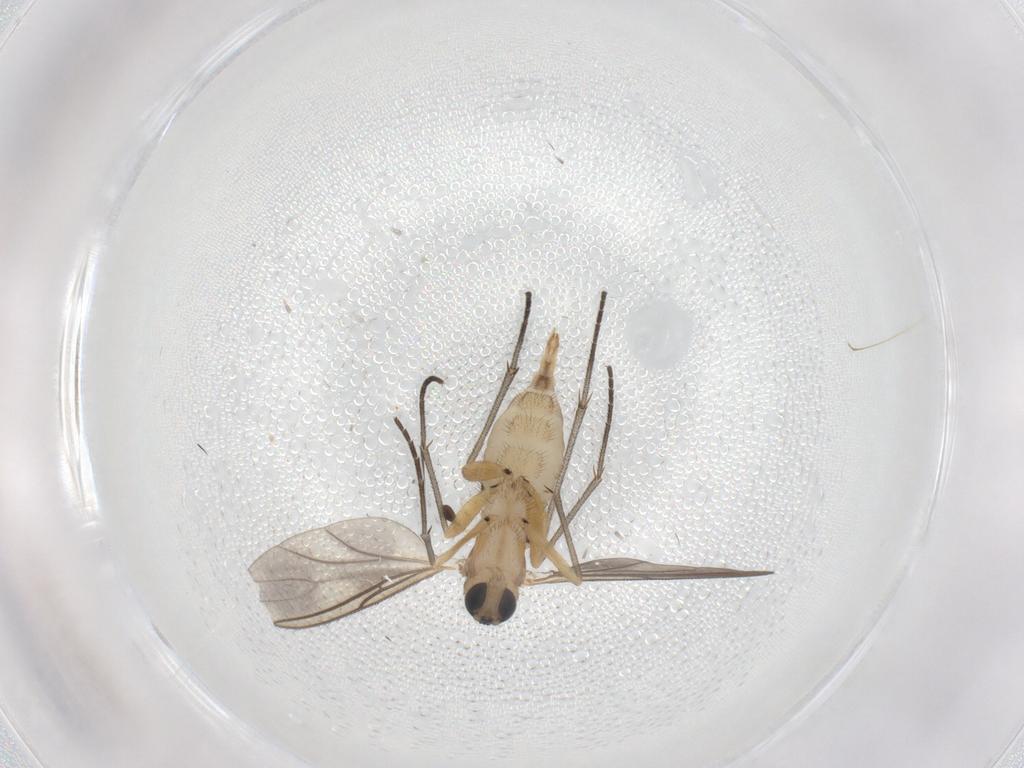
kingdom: Animalia
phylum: Arthropoda
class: Insecta
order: Diptera
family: Sciaridae
